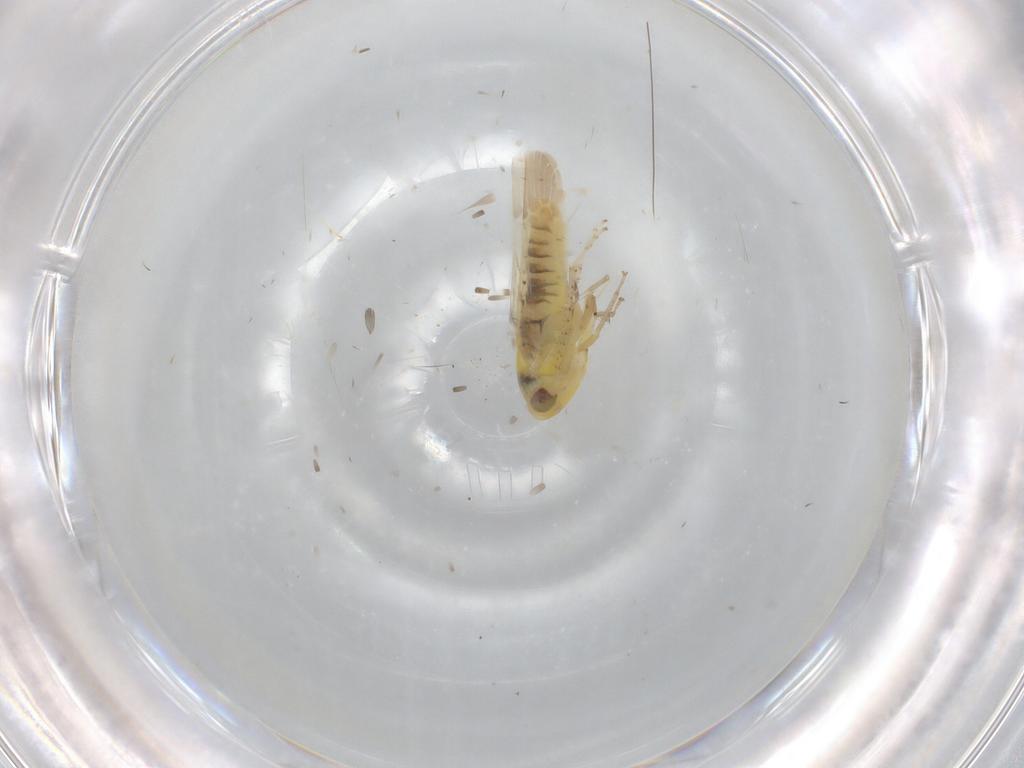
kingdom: Animalia
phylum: Arthropoda
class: Insecta
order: Hemiptera
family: Cicadellidae
